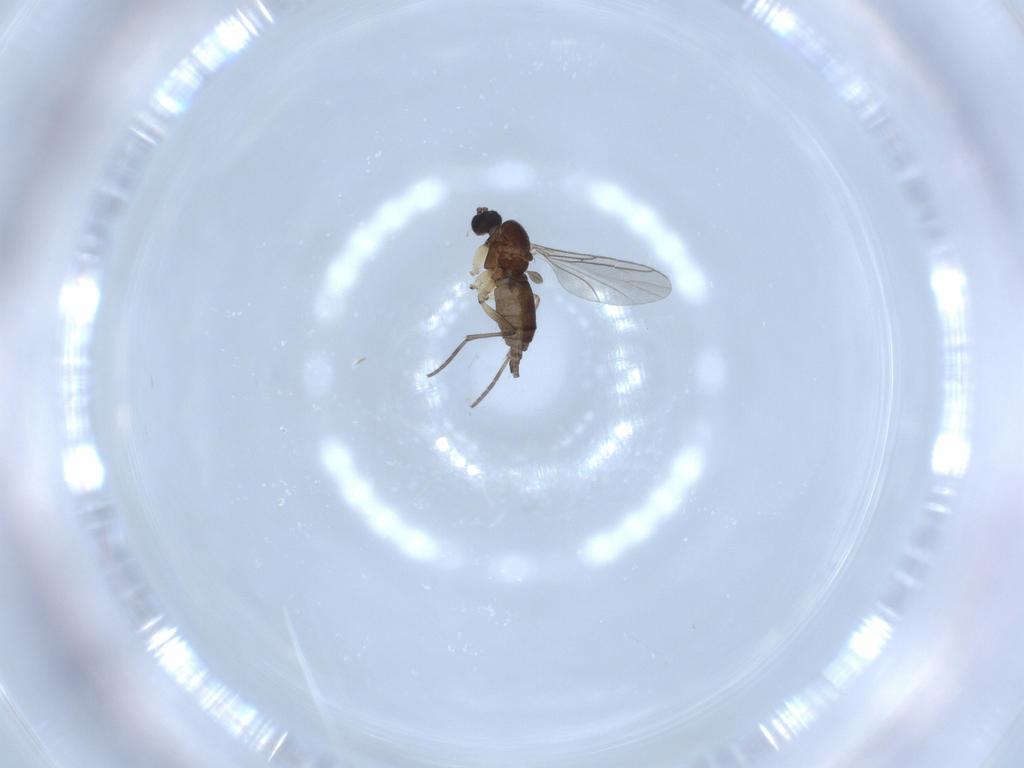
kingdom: Animalia
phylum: Arthropoda
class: Insecta
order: Diptera
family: Sciaridae
